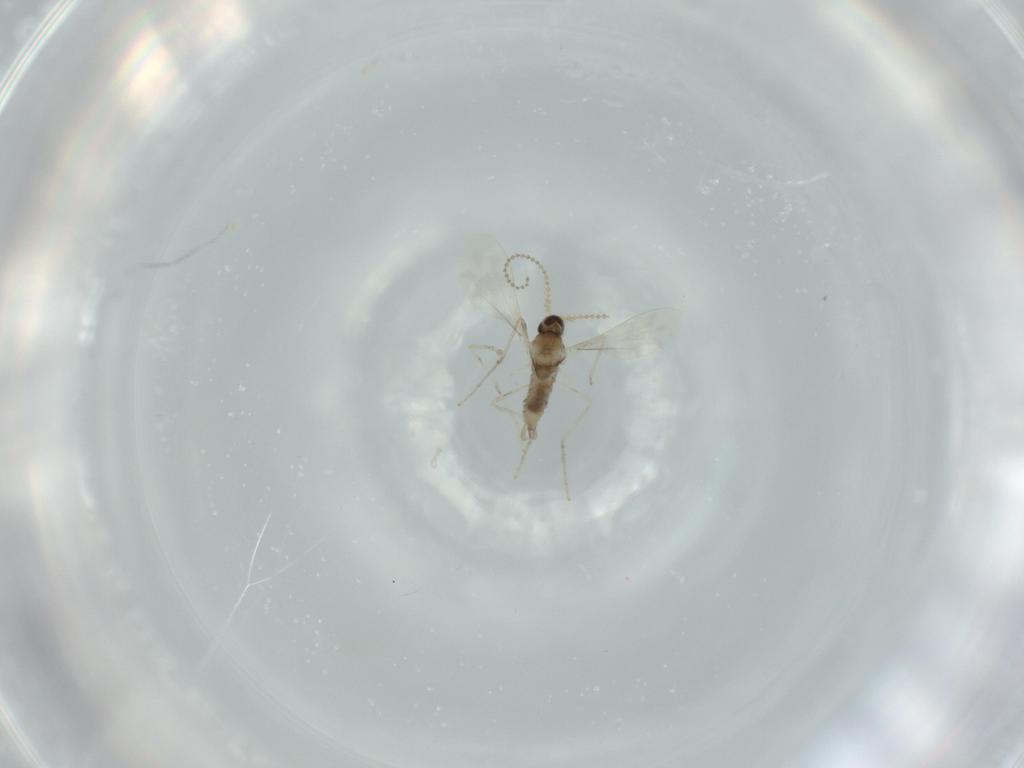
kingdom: Animalia
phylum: Arthropoda
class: Insecta
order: Diptera
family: Cecidomyiidae
